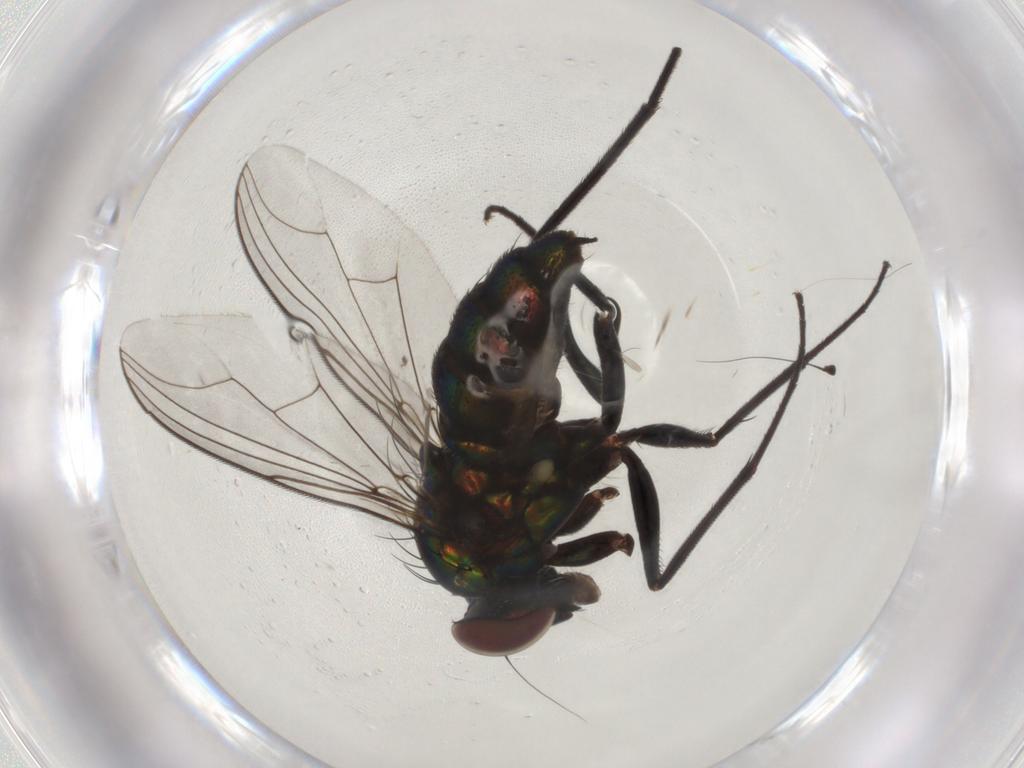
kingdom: Animalia
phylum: Arthropoda
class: Insecta
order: Diptera
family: Dolichopodidae
